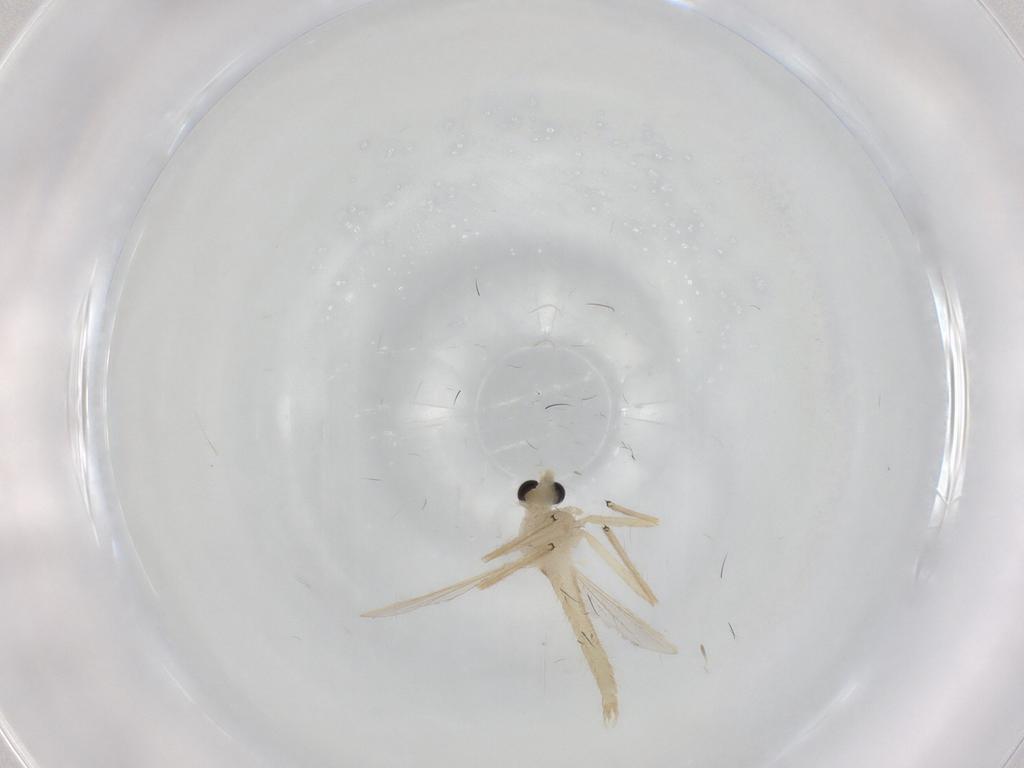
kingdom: Animalia
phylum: Arthropoda
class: Insecta
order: Diptera
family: Chironomidae
